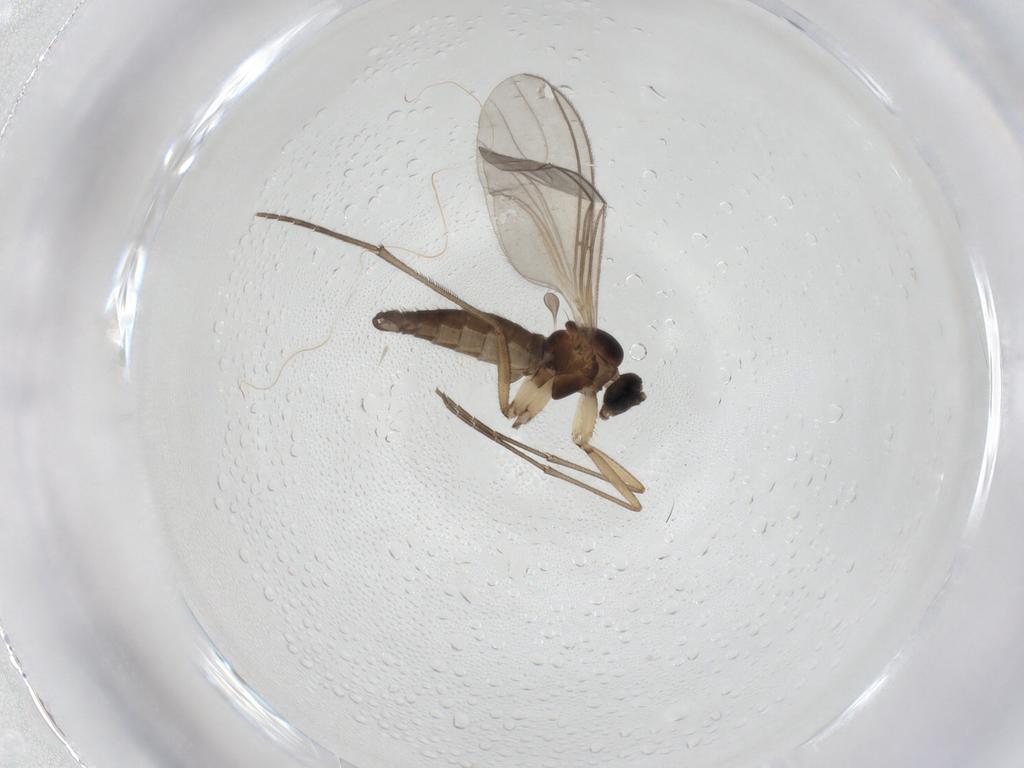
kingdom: Animalia
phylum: Arthropoda
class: Insecta
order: Diptera
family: Sciaridae
